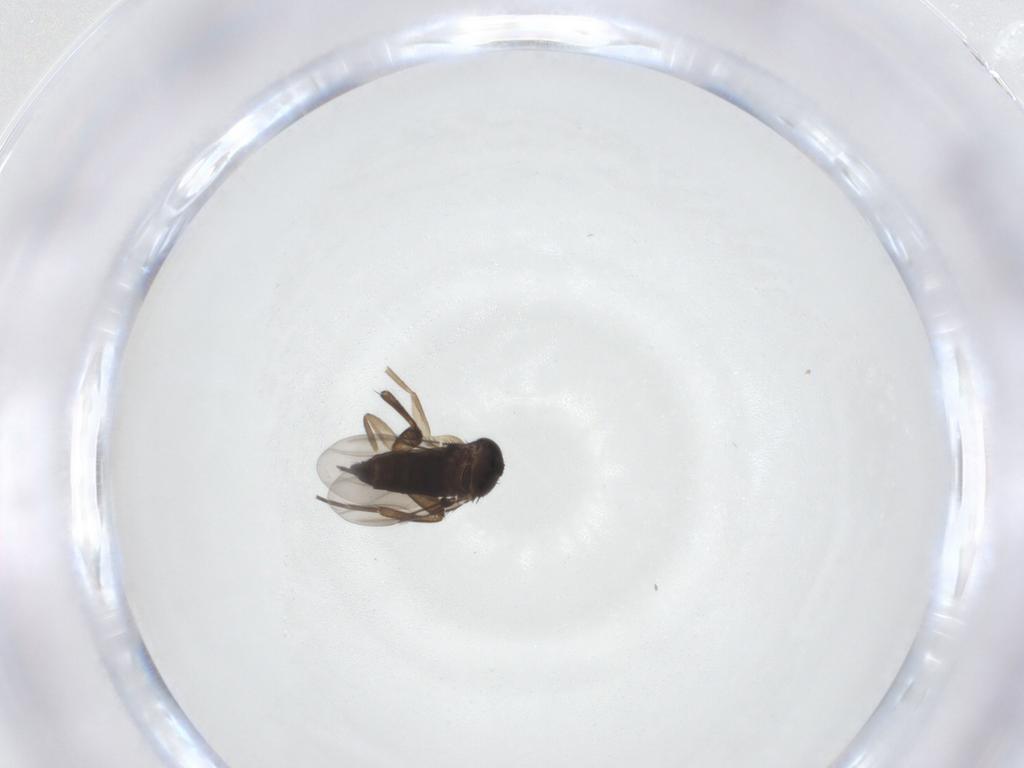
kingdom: Animalia
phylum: Arthropoda
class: Insecta
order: Diptera
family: Phoridae
